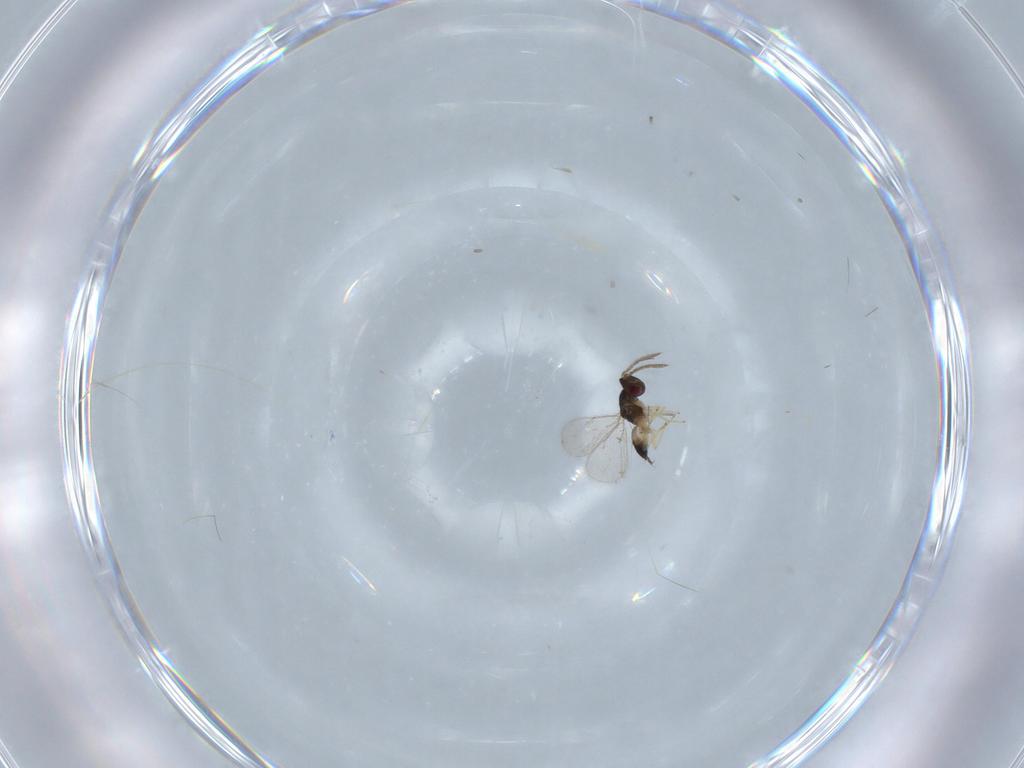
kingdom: Animalia
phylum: Arthropoda
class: Insecta
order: Hymenoptera
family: Eulophidae
